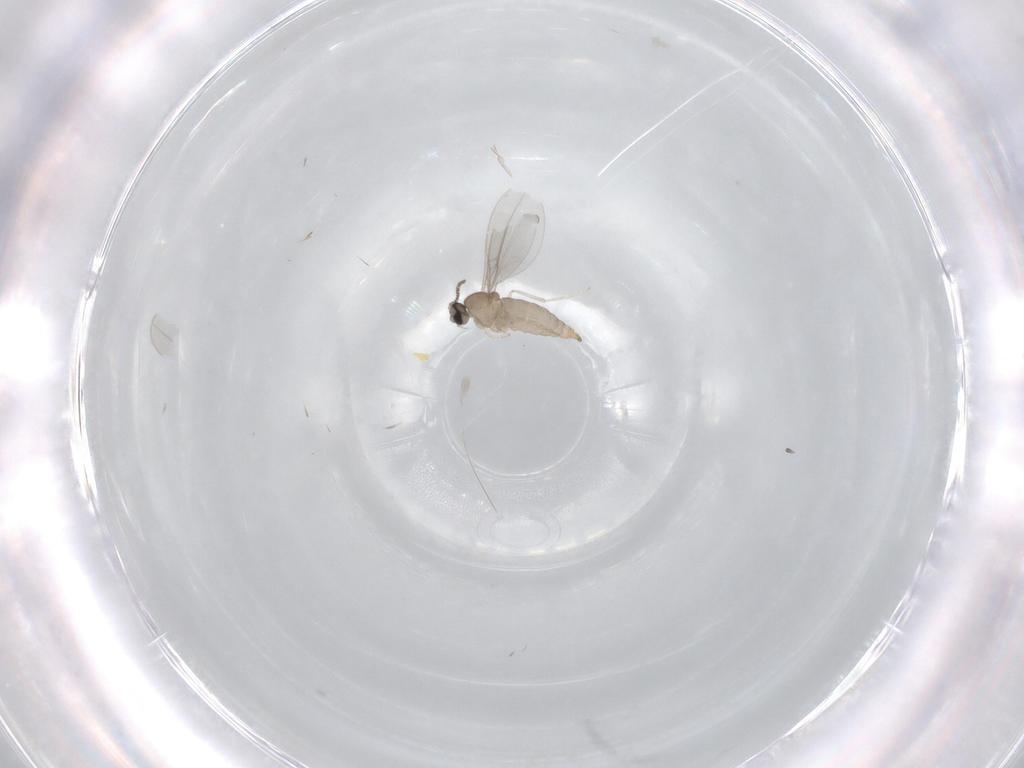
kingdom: Animalia
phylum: Arthropoda
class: Insecta
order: Diptera
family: Cecidomyiidae
